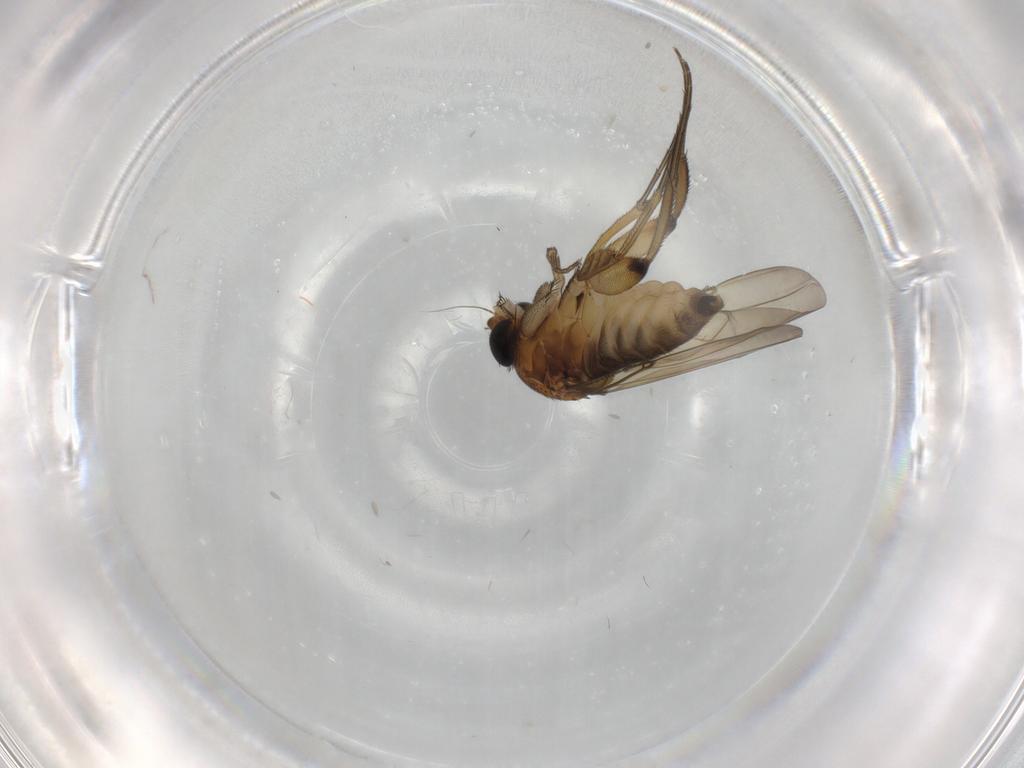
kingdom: Animalia
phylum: Arthropoda
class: Insecta
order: Diptera
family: Phoridae
